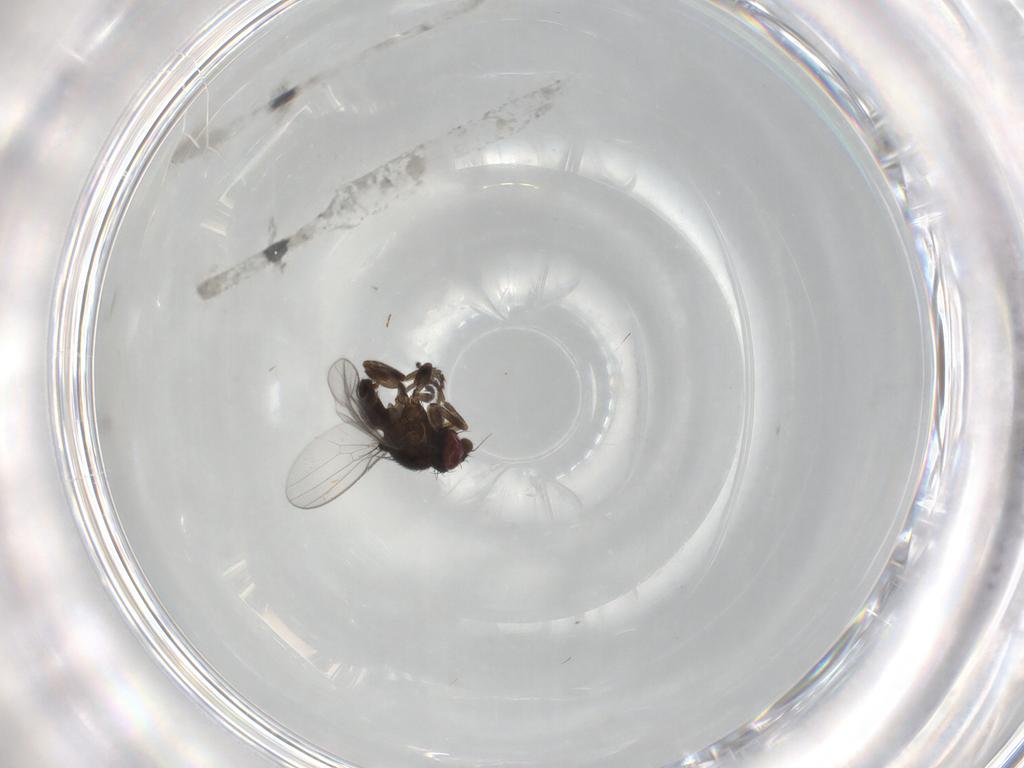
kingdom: Animalia
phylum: Arthropoda
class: Insecta
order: Diptera
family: Milichiidae
